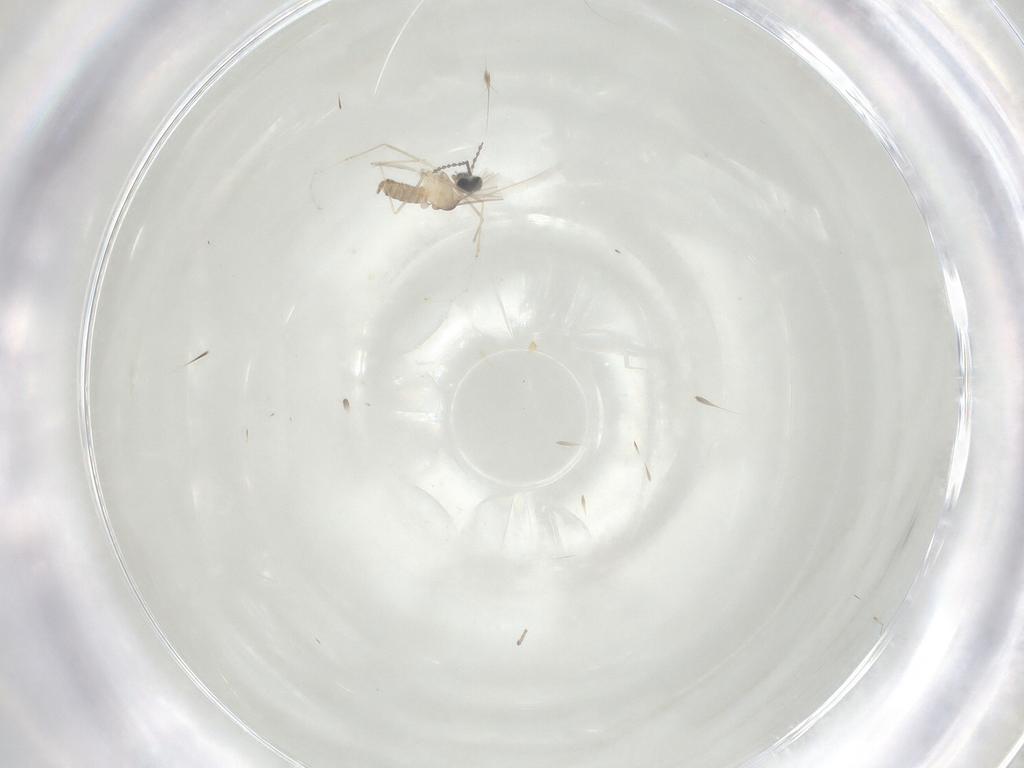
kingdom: Animalia
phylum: Arthropoda
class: Insecta
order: Diptera
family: Cecidomyiidae
